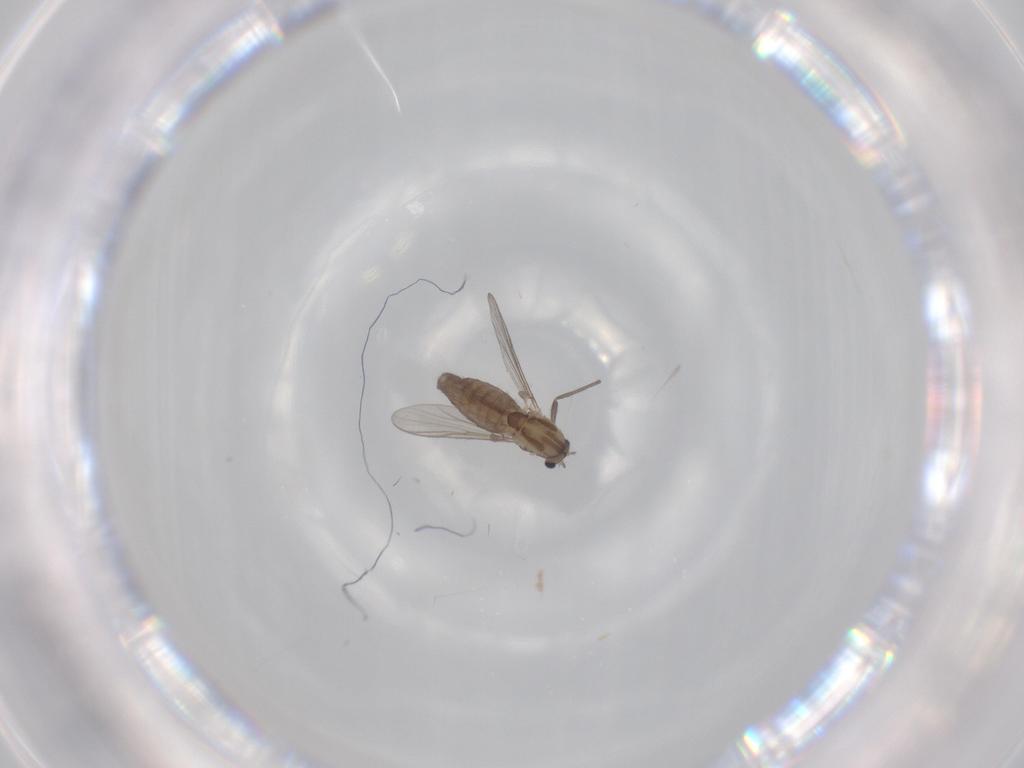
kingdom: Animalia
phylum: Arthropoda
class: Insecta
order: Diptera
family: Chironomidae
